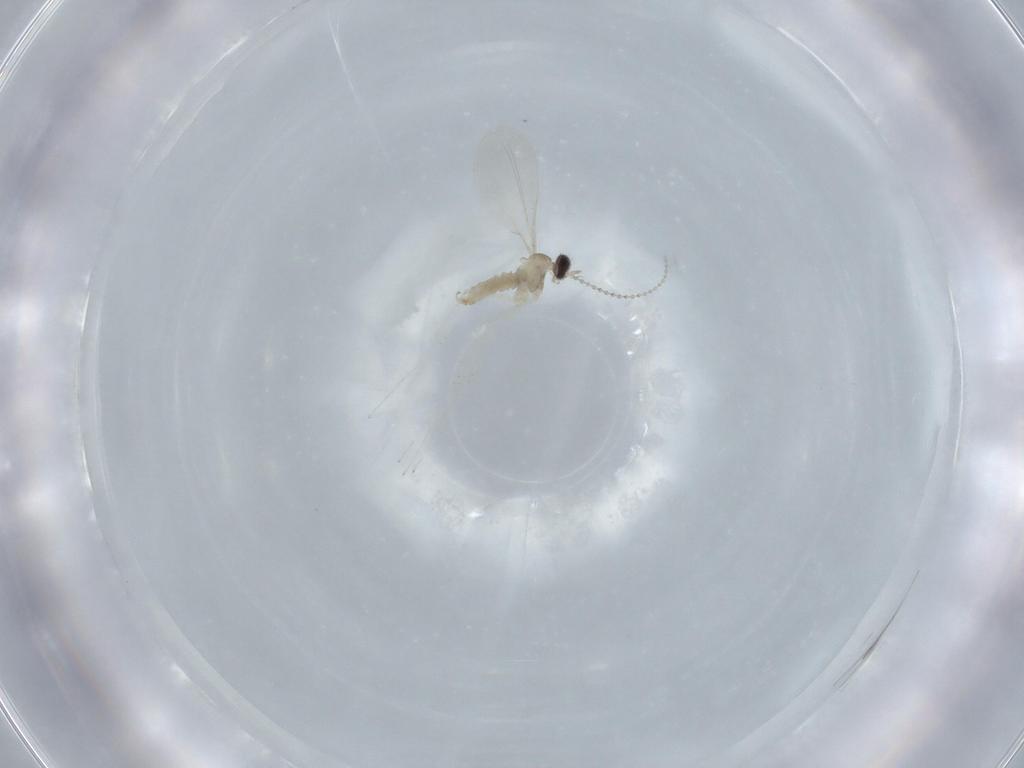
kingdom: Animalia
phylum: Arthropoda
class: Insecta
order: Diptera
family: Cecidomyiidae
